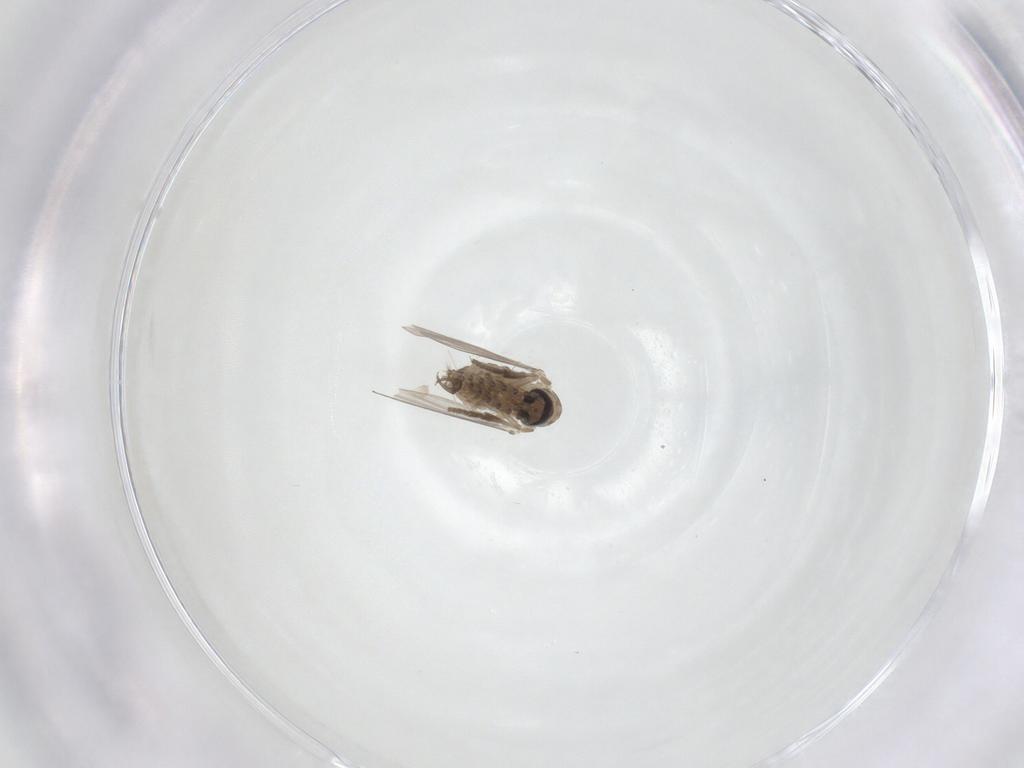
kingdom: Animalia
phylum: Arthropoda
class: Insecta
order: Diptera
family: Psychodidae
